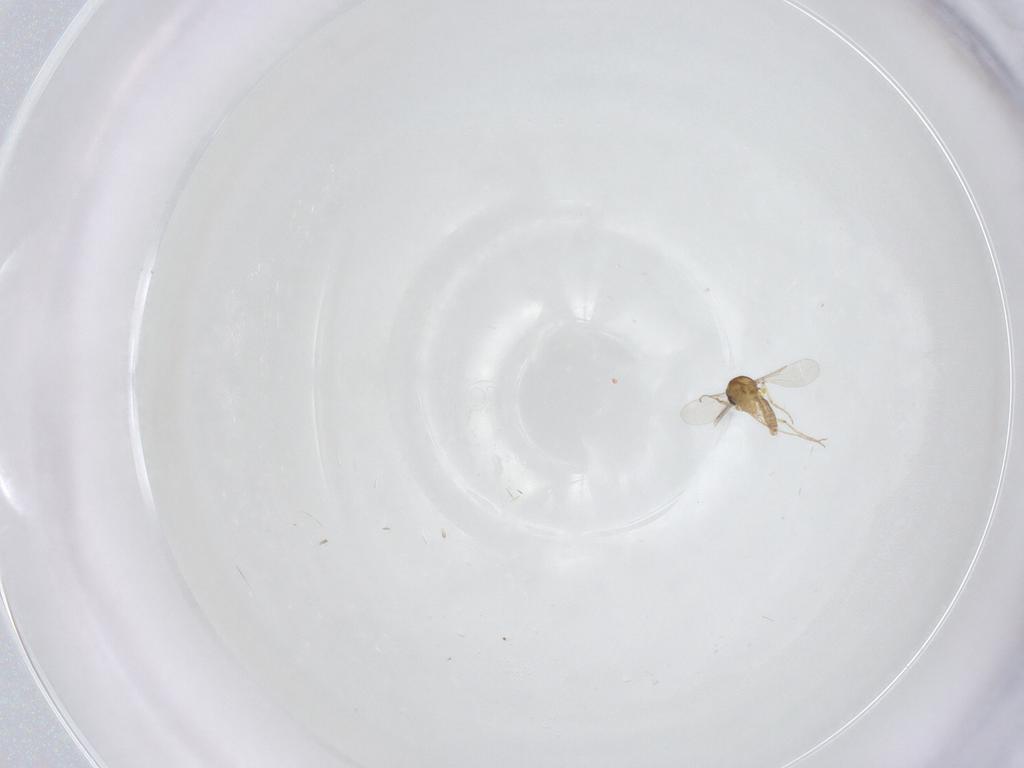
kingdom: Animalia
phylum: Arthropoda
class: Insecta
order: Diptera
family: Ceratopogonidae
